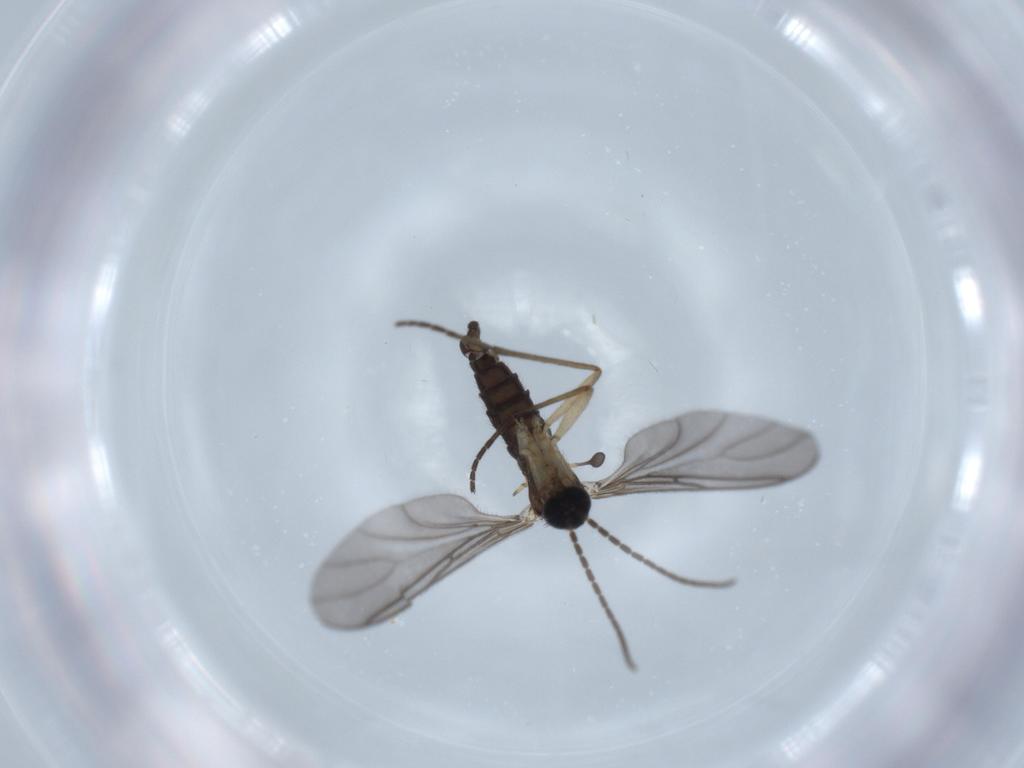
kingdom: Animalia
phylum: Arthropoda
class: Insecta
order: Diptera
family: Sciaridae
